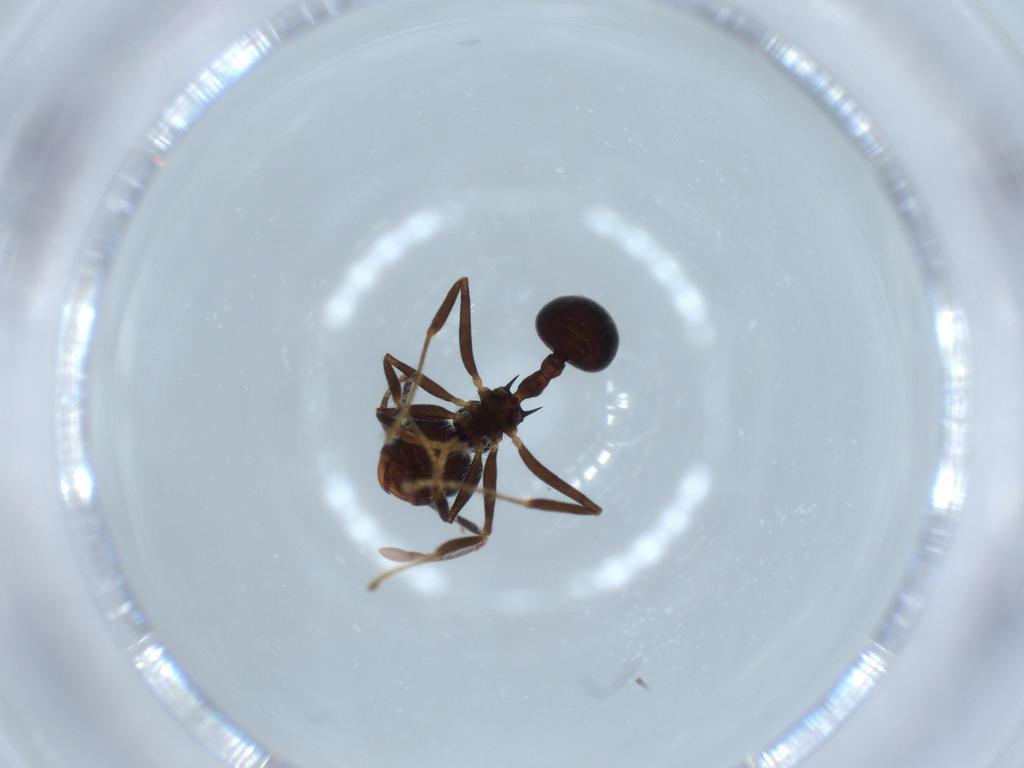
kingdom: Animalia
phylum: Arthropoda
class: Insecta
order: Hymenoptera
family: Formicidae
